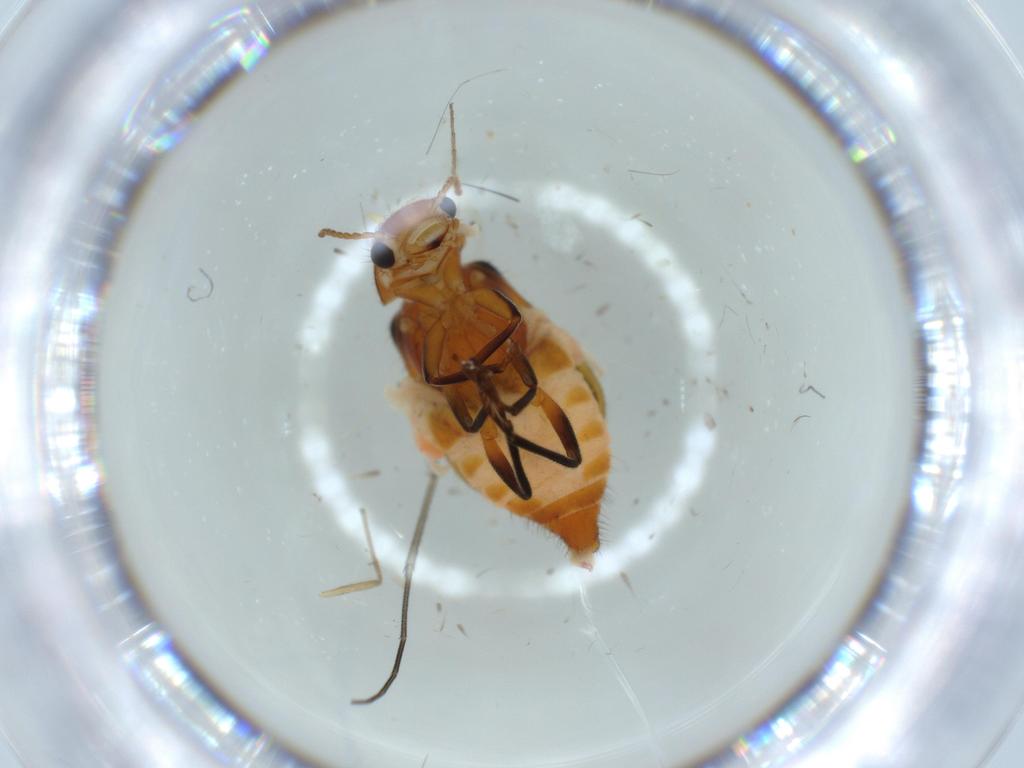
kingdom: Animalia
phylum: Arthropoda
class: Insecta
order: Coleoptera
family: Melyridae
